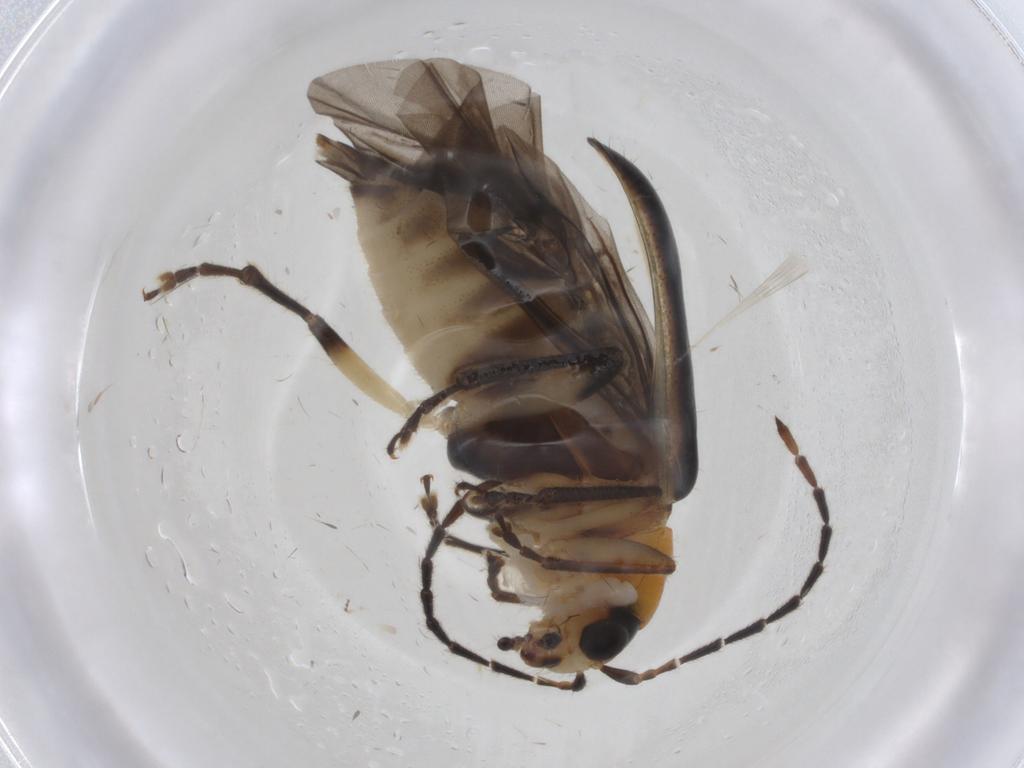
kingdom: Animalia
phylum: Arthropoda
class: Insecta
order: Coleoptera
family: Chrysomelidae
